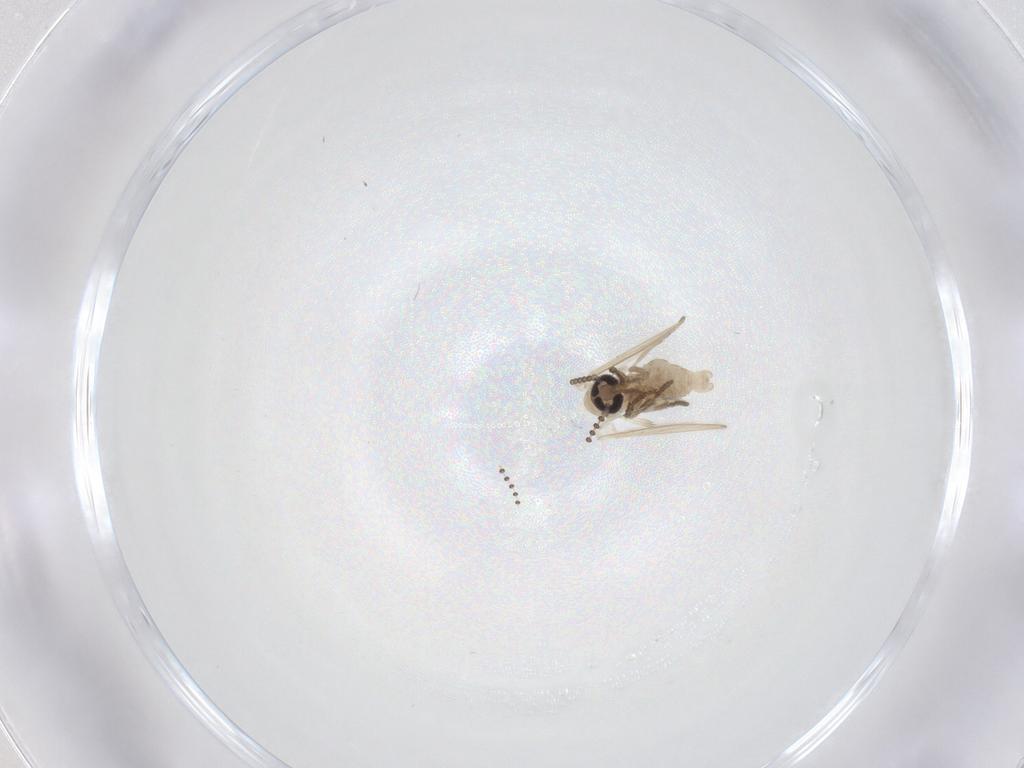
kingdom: Animalia
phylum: Arthropoda
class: Insecta
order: Diptera
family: Psychodidae
